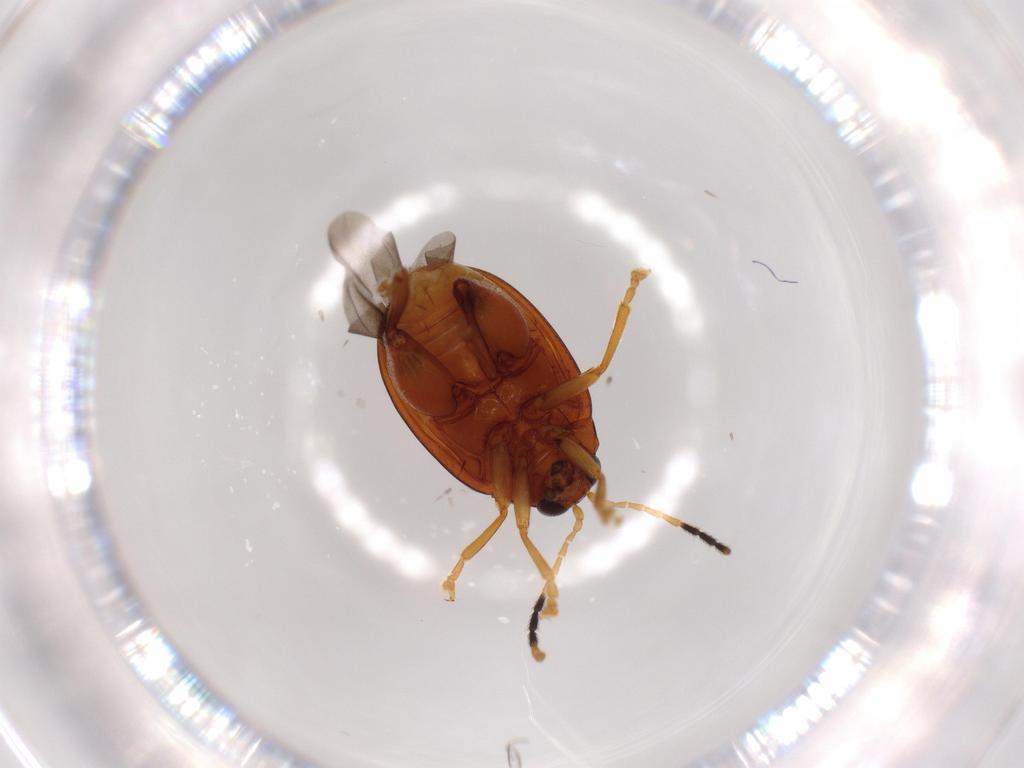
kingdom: Animalia
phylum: Arthropoda
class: Insecta
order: Coleoptera
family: Chrysomelidae
